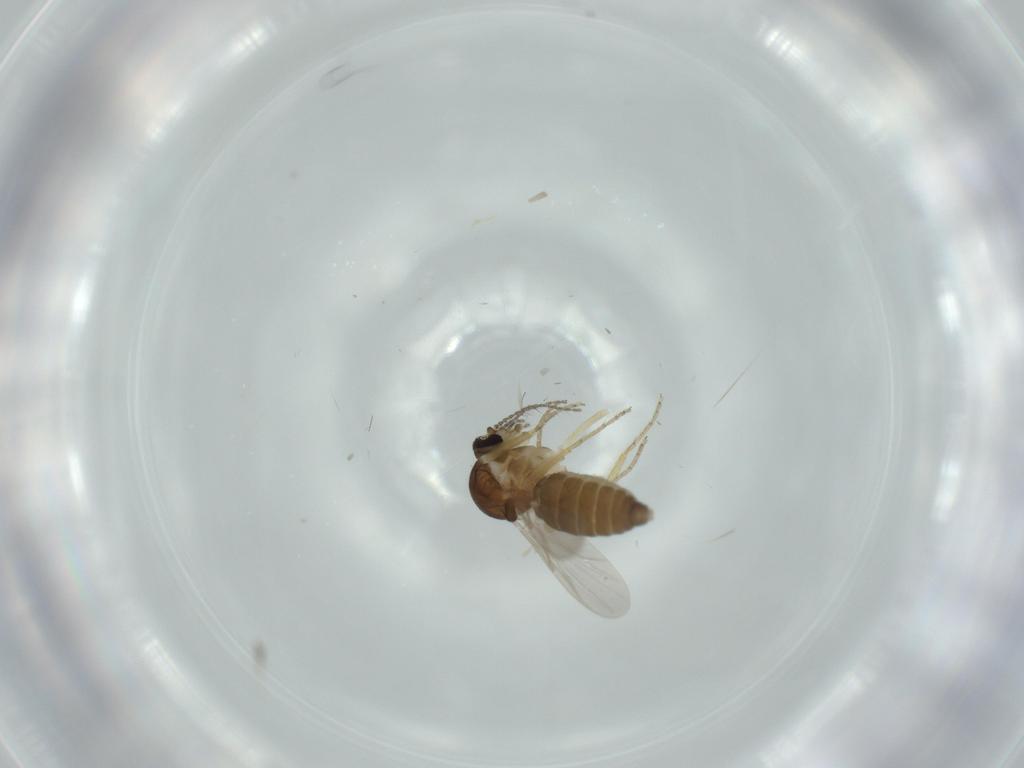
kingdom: Animalia
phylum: Arthropoda
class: Insecta
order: Diptera
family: Ceratopogonidae
